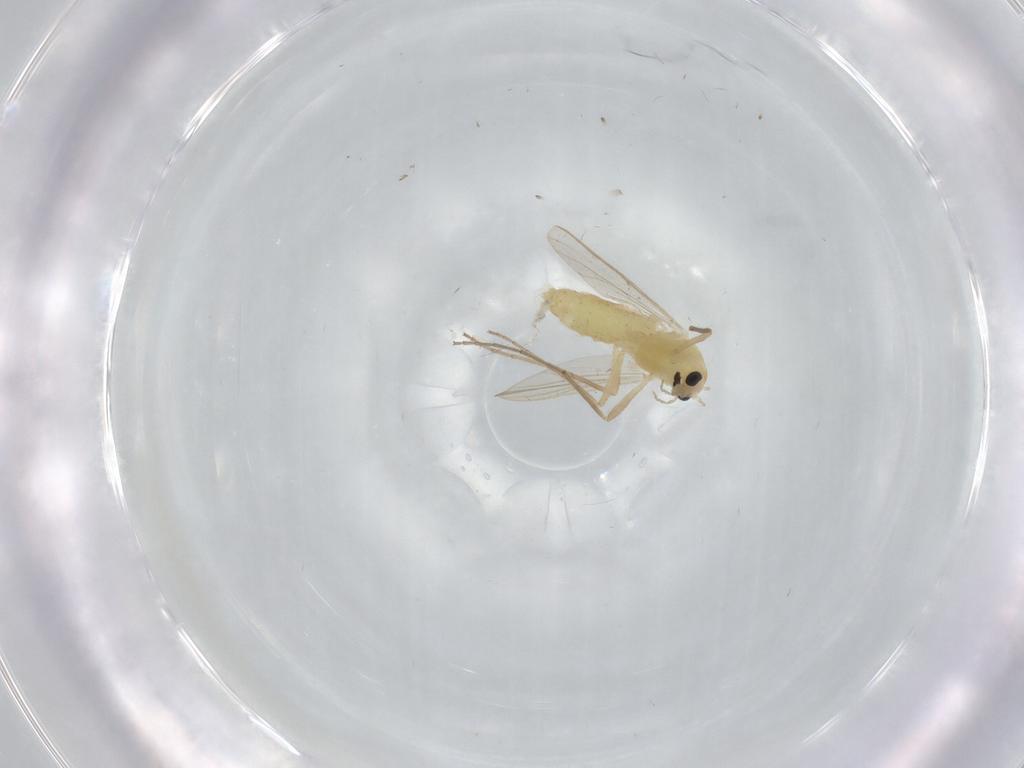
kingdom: Animalia
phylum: Arthropoda
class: Insecta
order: Diptera
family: Chironomidae
